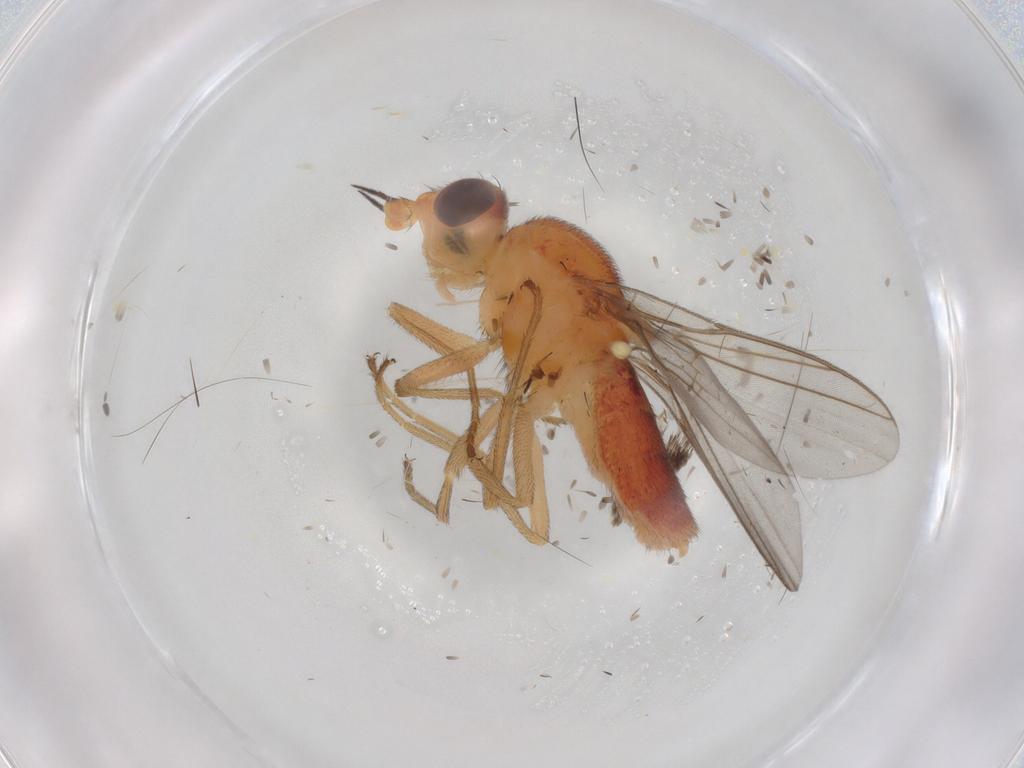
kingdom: Animalia
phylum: Arthropoda
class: Insecta
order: Diptera
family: Chloropidae
